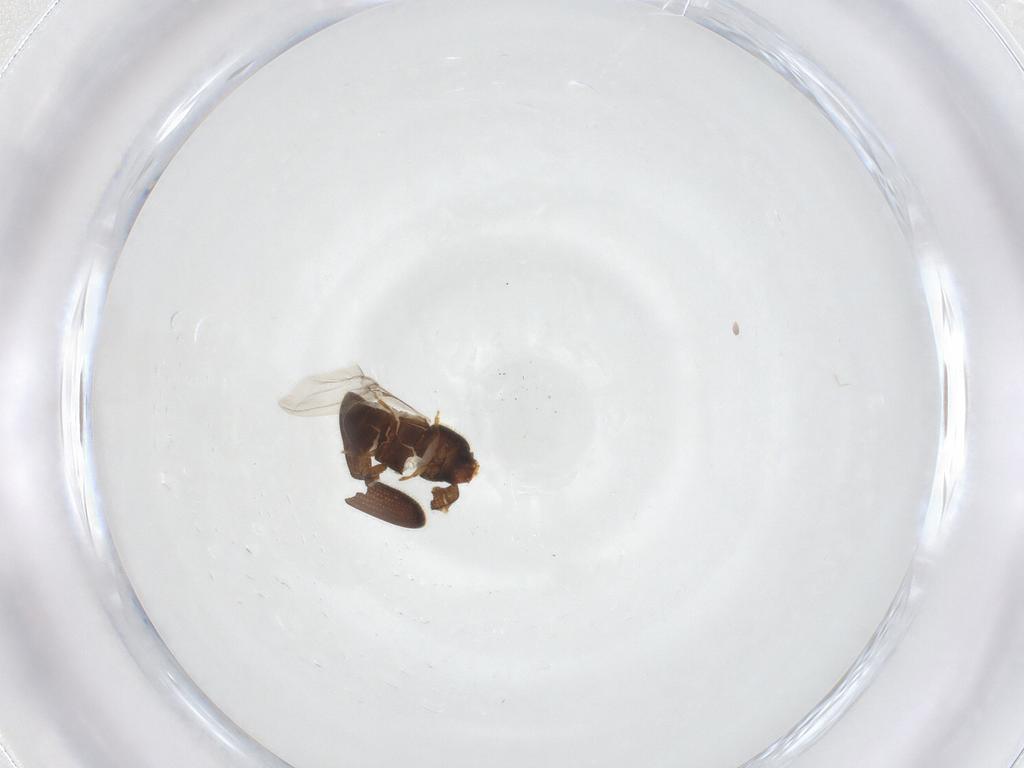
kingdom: Animalia
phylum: Arthropoda
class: Insecta
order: Coleoptera
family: Curculionidae
